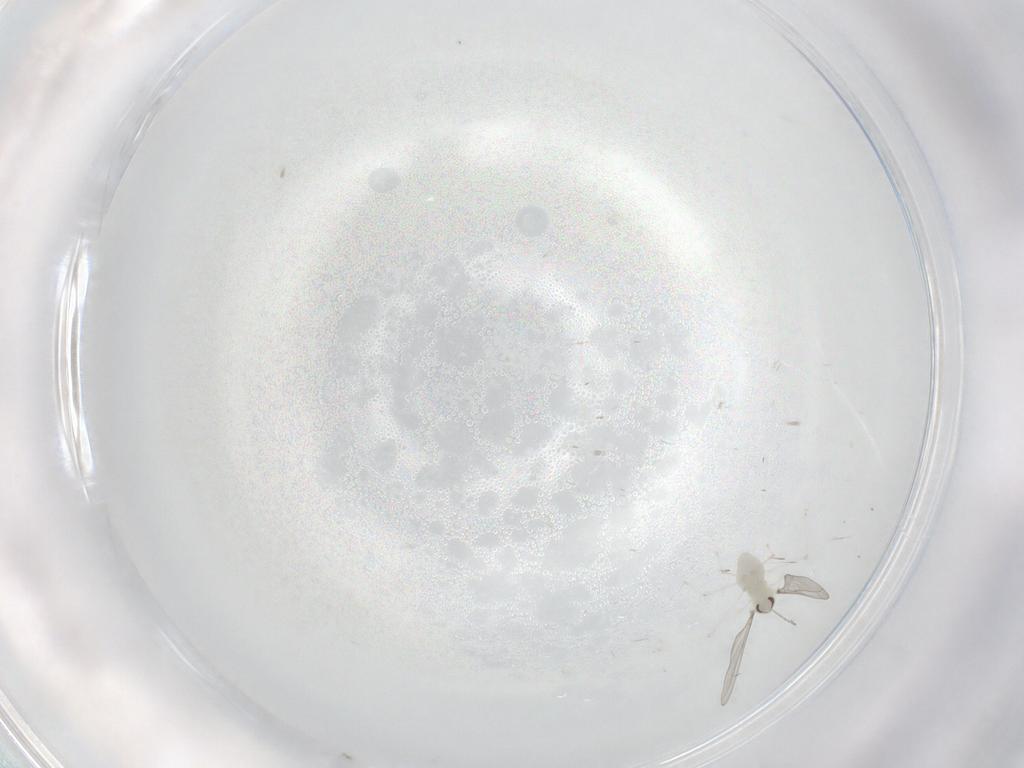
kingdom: Animalia
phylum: Arthropoda
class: Insecta
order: Diptera
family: Cecidomyiidae
